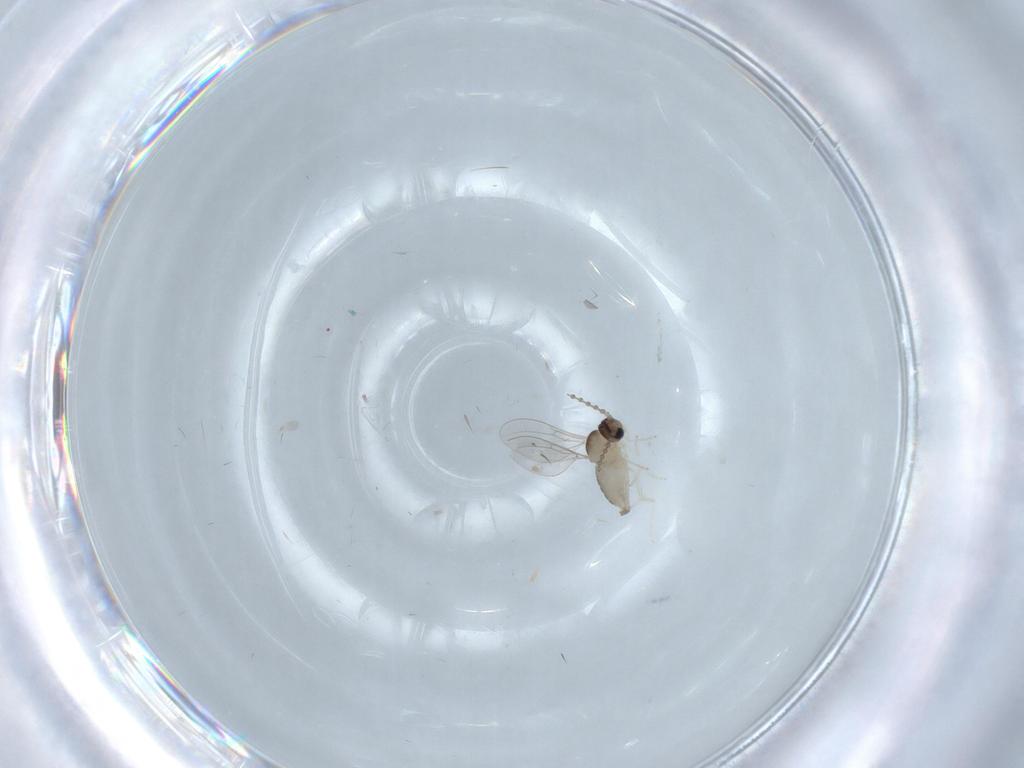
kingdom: Animalia
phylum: Arthropoda
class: Insecta
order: Diptera
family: Cecidomyiidae
